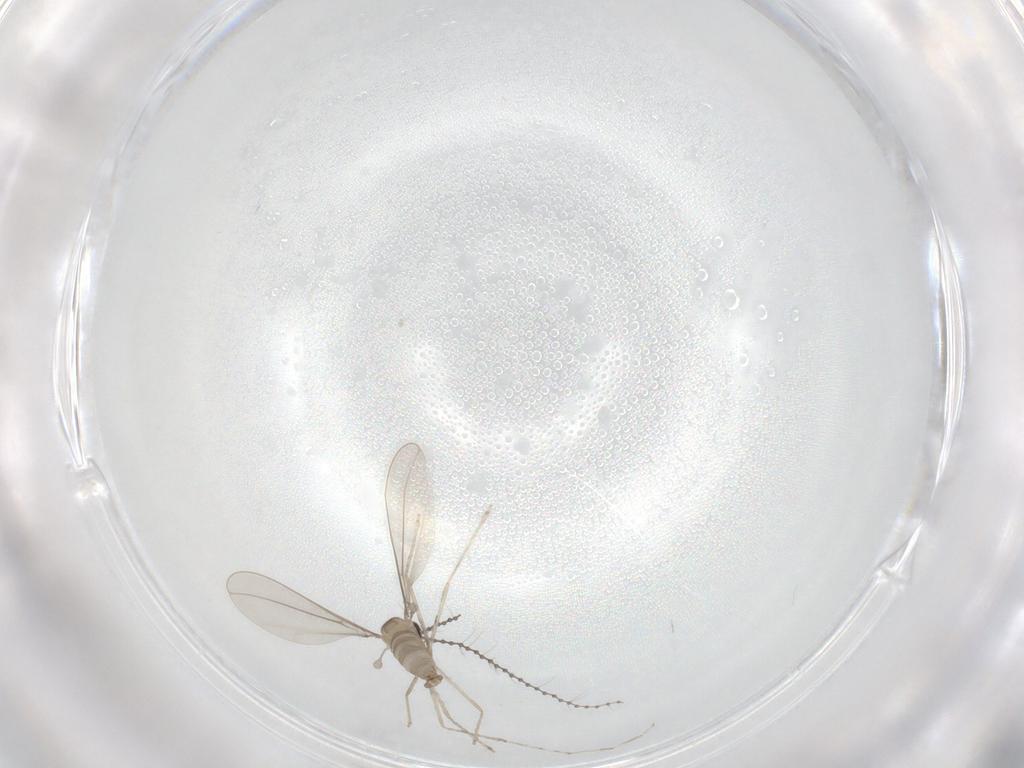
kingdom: Animalia
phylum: Arthropoda
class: Insecta
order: Diptera
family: Cecidomyiidae
